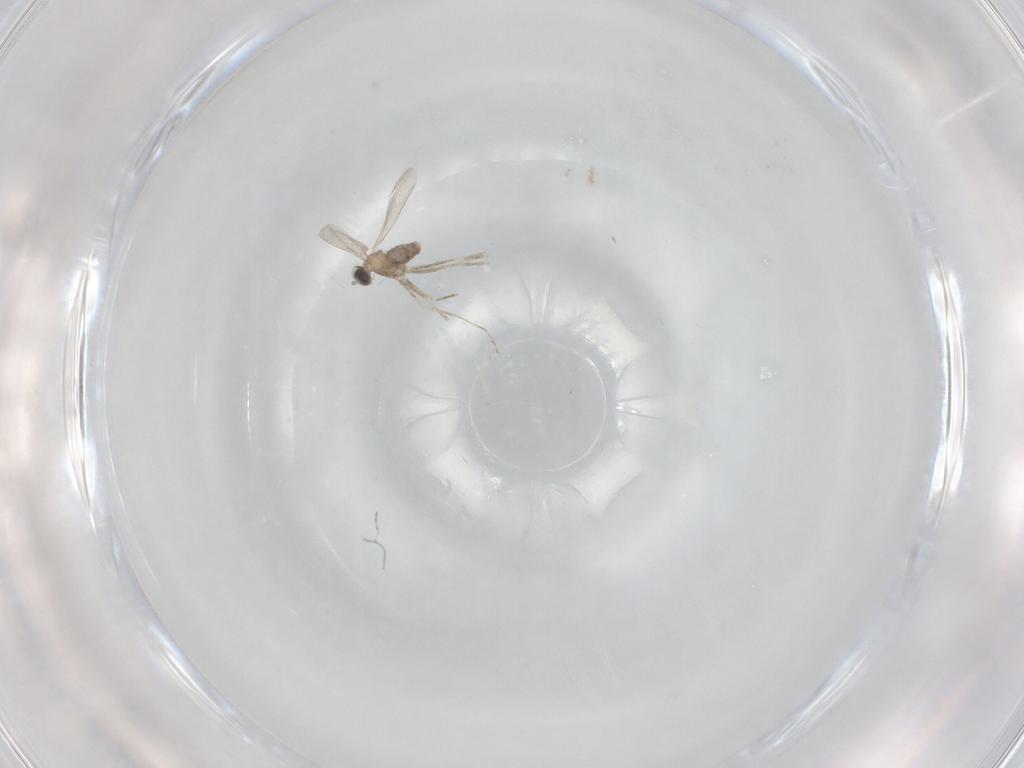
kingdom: Animalia
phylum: Arthropoda
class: Insecta
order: Diptera
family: Cecidomyiidae
